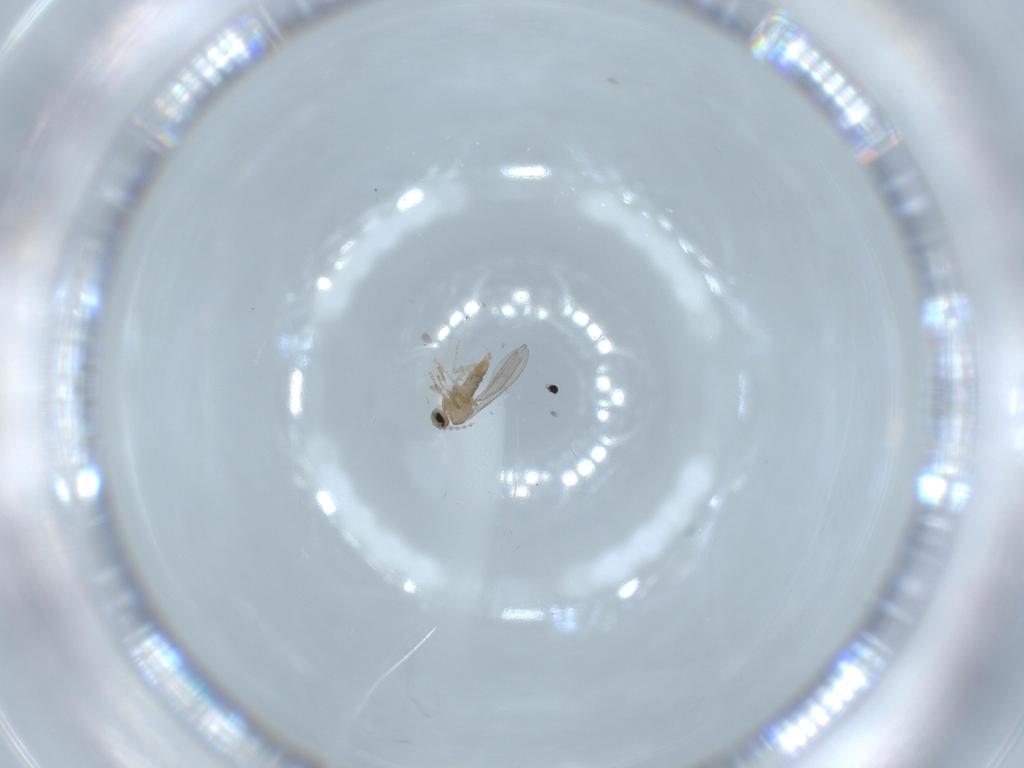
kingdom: Animalia
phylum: Arthropoda
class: Insecta
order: Diptera
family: Cecidomyiidae
